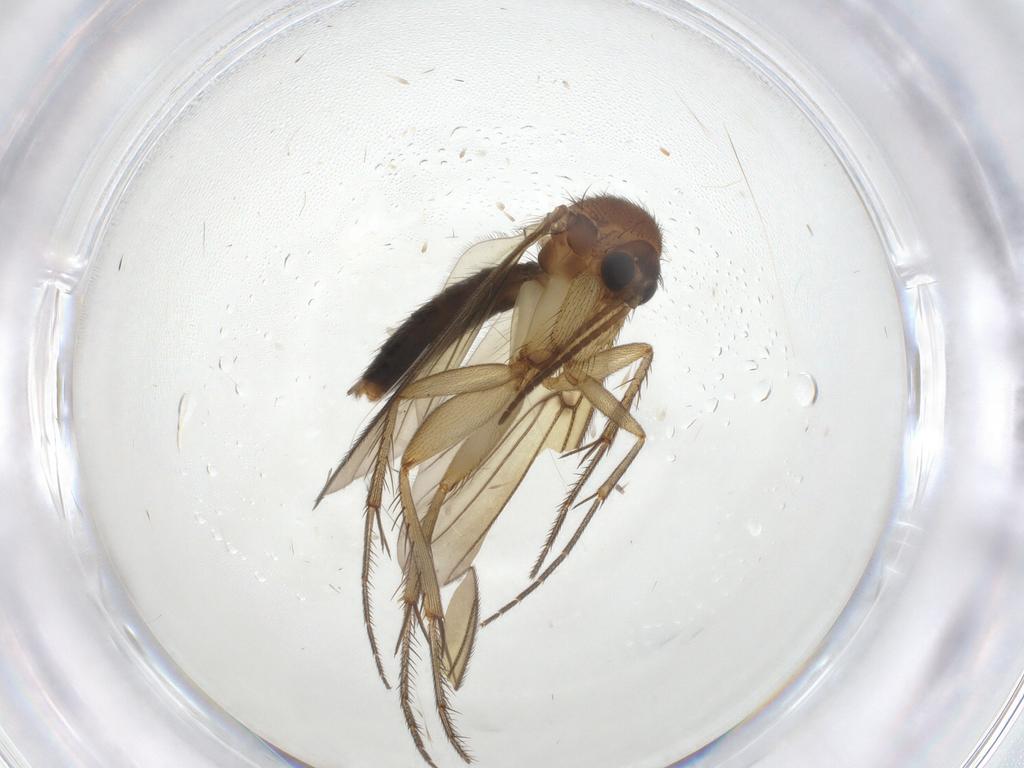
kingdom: Animalia
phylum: Arthropoda
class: Insecta
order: Diptera
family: Mycetophilidae
